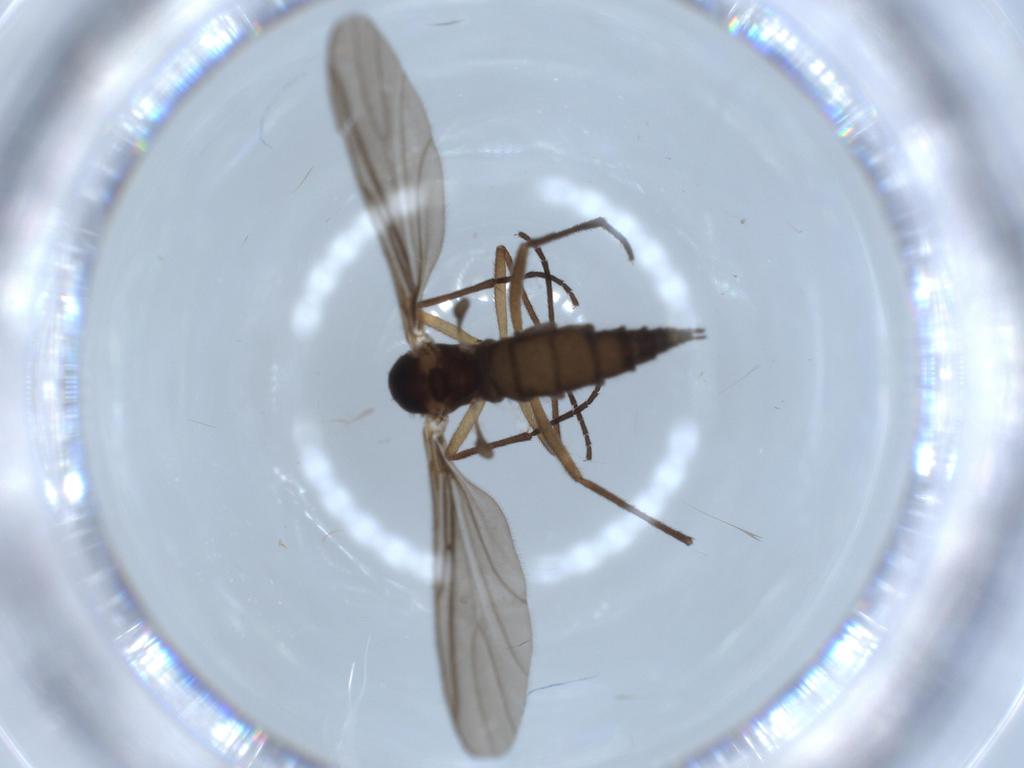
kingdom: Animalia
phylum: Arthropoda
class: Insecta
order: Diptera
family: Sciaridae
